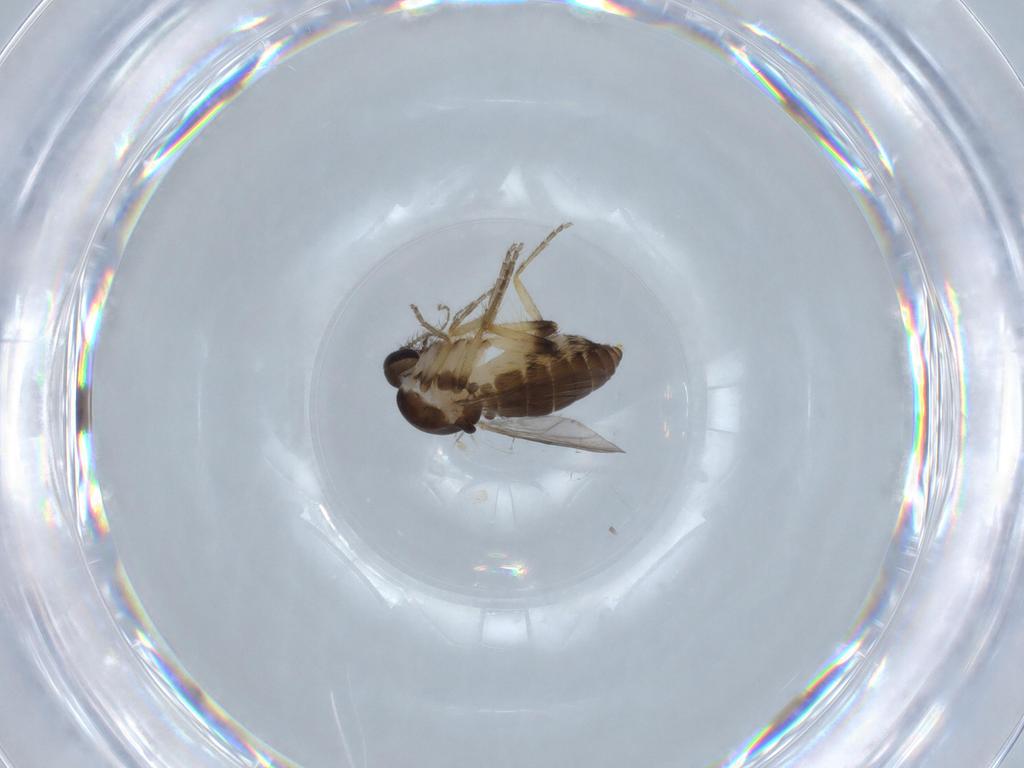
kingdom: Animalia
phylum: Arthropoda
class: Insecta
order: Diptera
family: Ceratopogonidae
